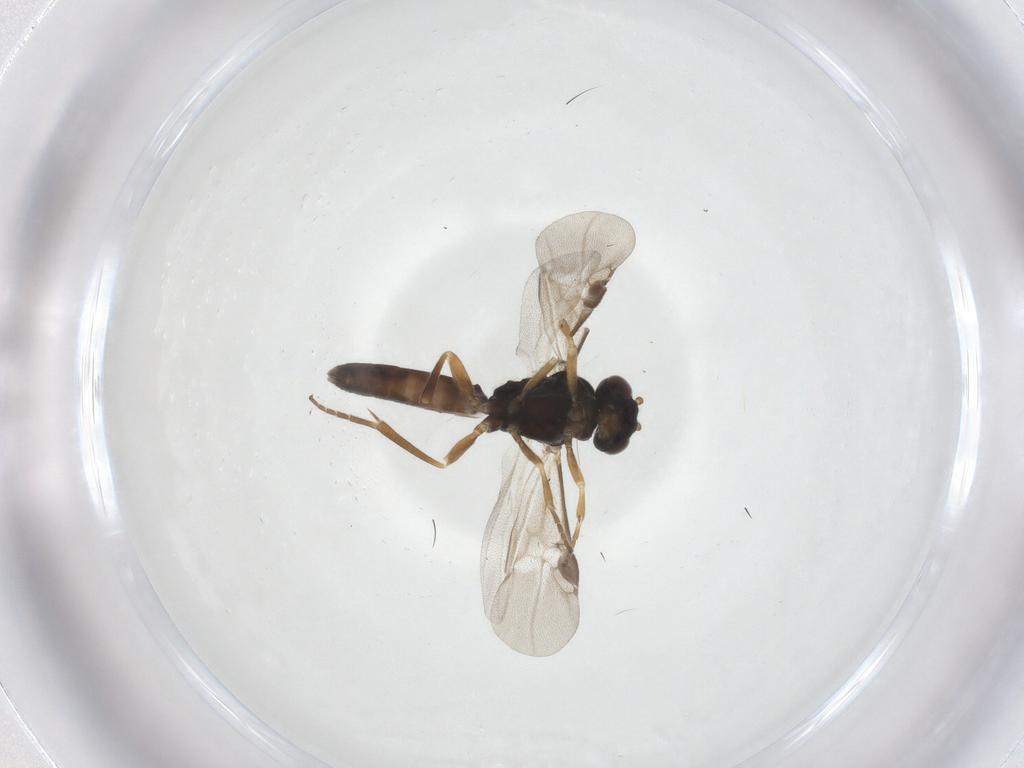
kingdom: Animalia
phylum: Arthropoda
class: Insecta
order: Hymenoptera
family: Braconidae
